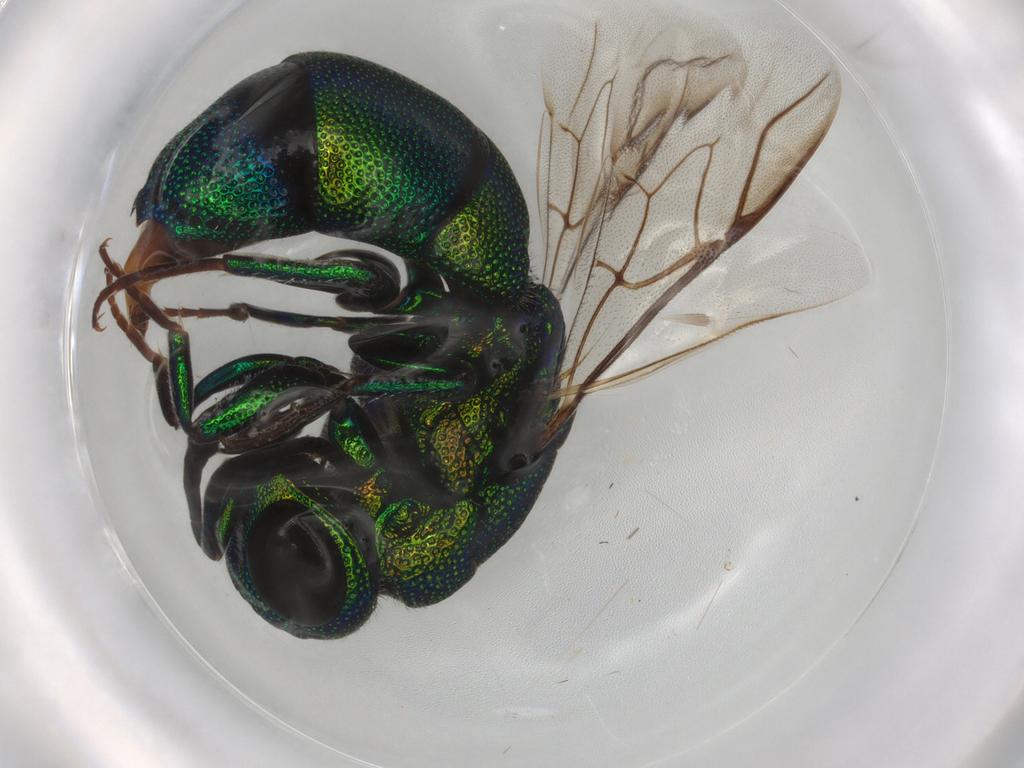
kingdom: Animalia
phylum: Arthropoda
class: Insecta
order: Hymenoptera
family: Chrysididae
